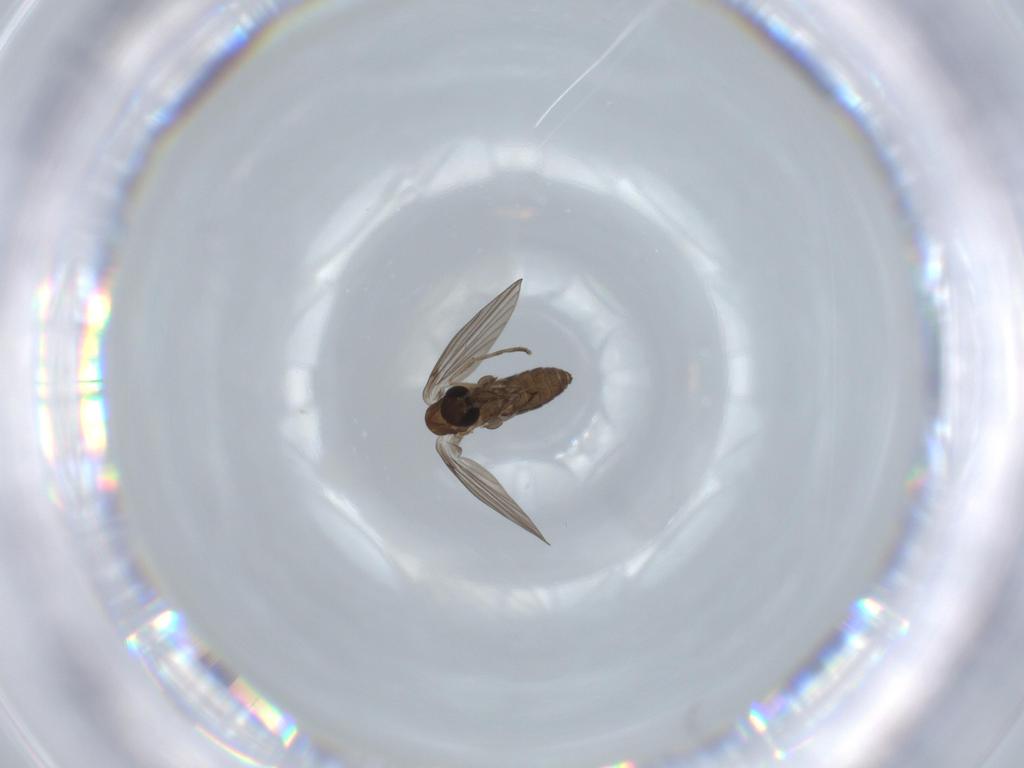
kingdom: Animalia
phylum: Arthropoda
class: Insecta
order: Diptera
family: Psychodidae
